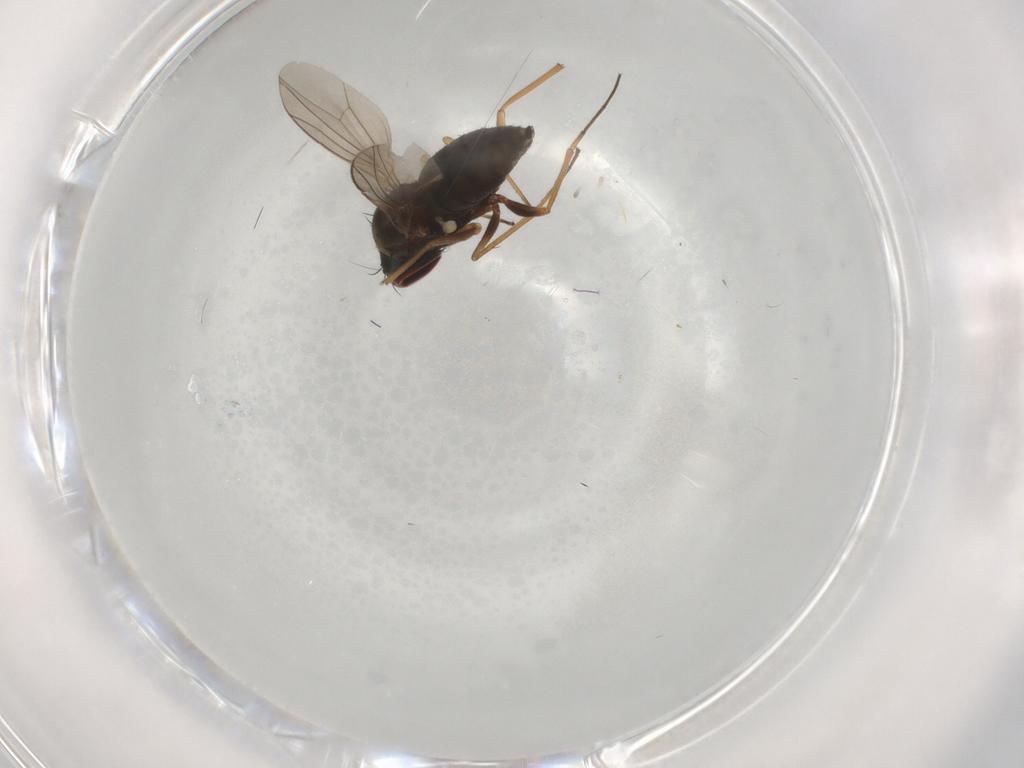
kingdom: Animalia
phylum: Arthropoda
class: Insecta
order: Diptera
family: Dolichopodidae
